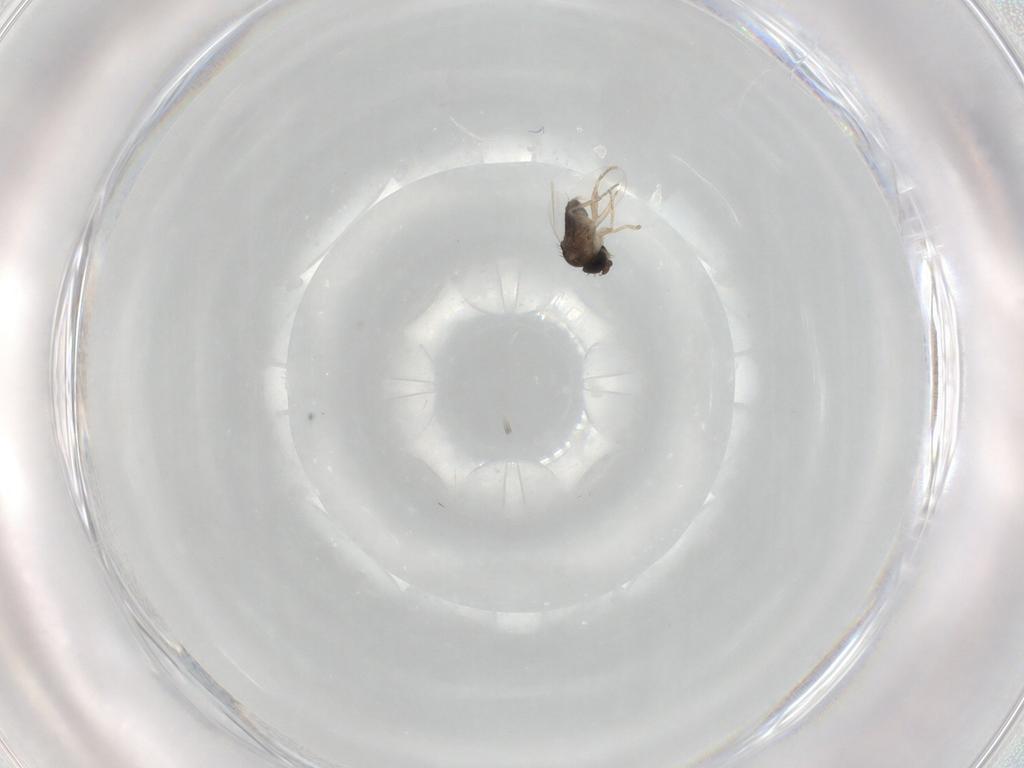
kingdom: Animalia
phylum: Arthropoda
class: Insecta
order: Diptera
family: Phoridae
